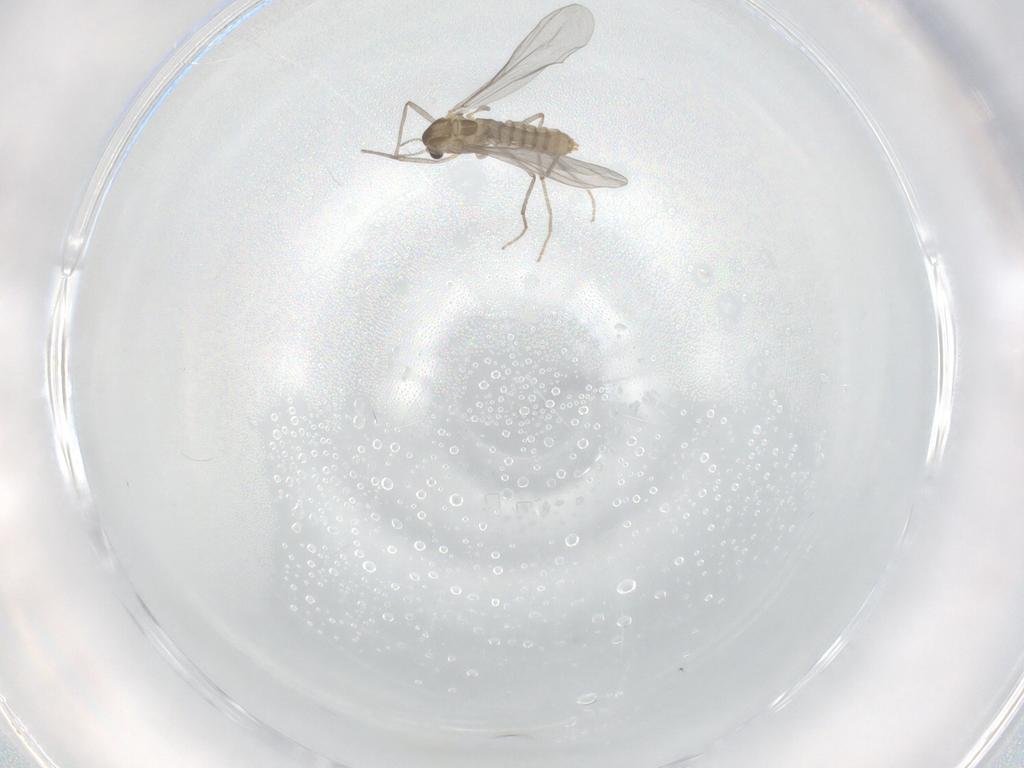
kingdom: Animalia
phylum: Arthropoda
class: Insecta
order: Diptera
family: Chironomidae
